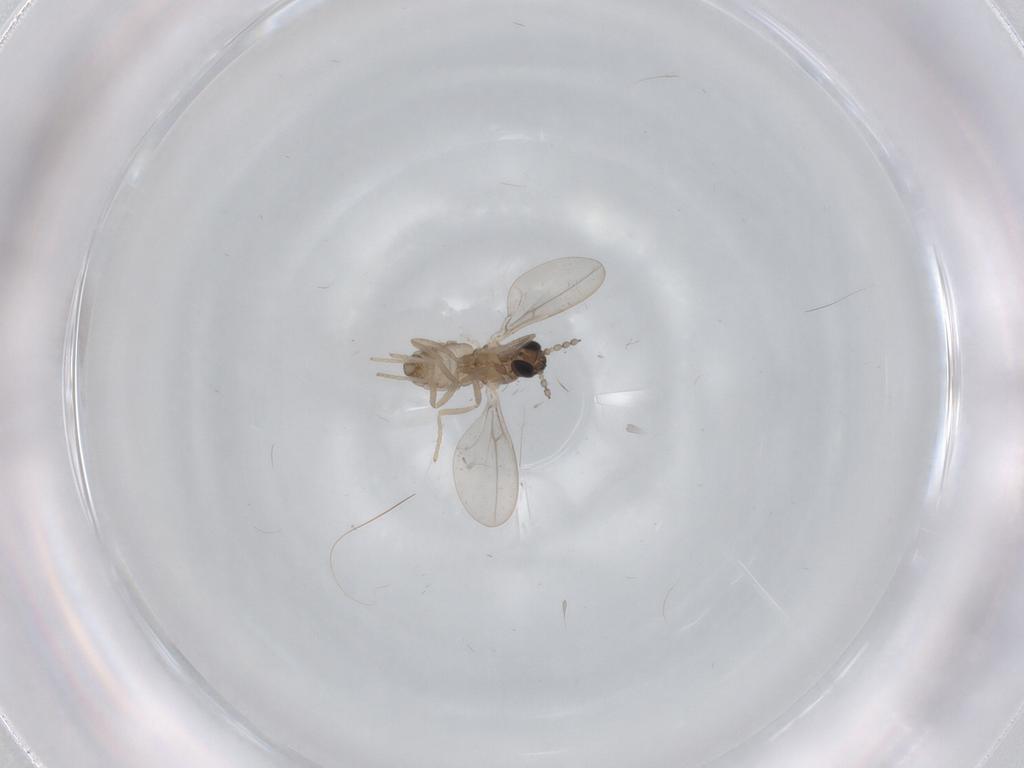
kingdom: Animalia
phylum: Arthropoda
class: Insecta
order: Diptera
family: Cecidomyiidae
